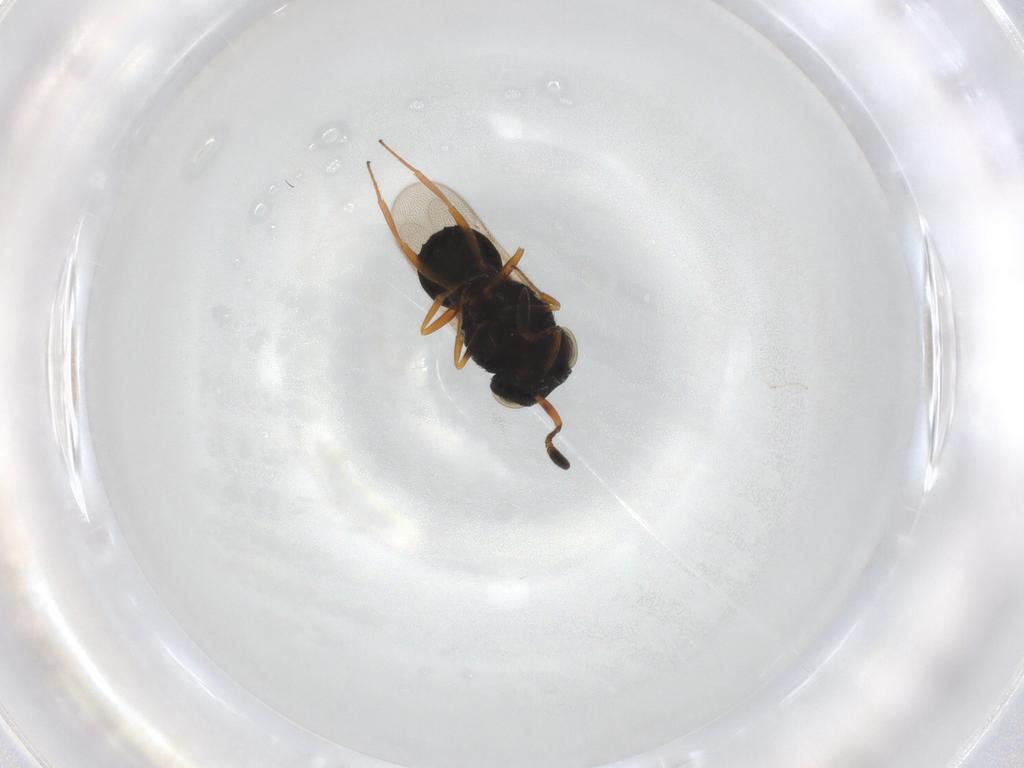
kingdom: Animalia
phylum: Arthropoda
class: Insecta
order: Hymenoptera
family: Scelionidae
